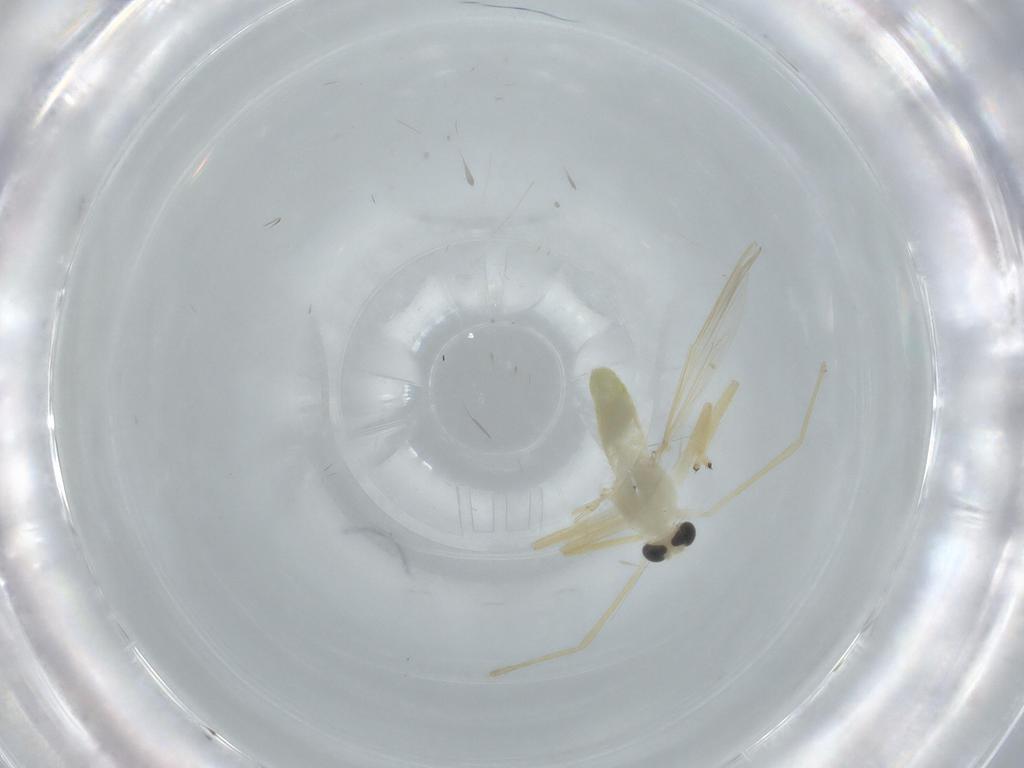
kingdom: Animalia
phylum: Arthropoda
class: Insecta
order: Diptera
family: Chironomidae
